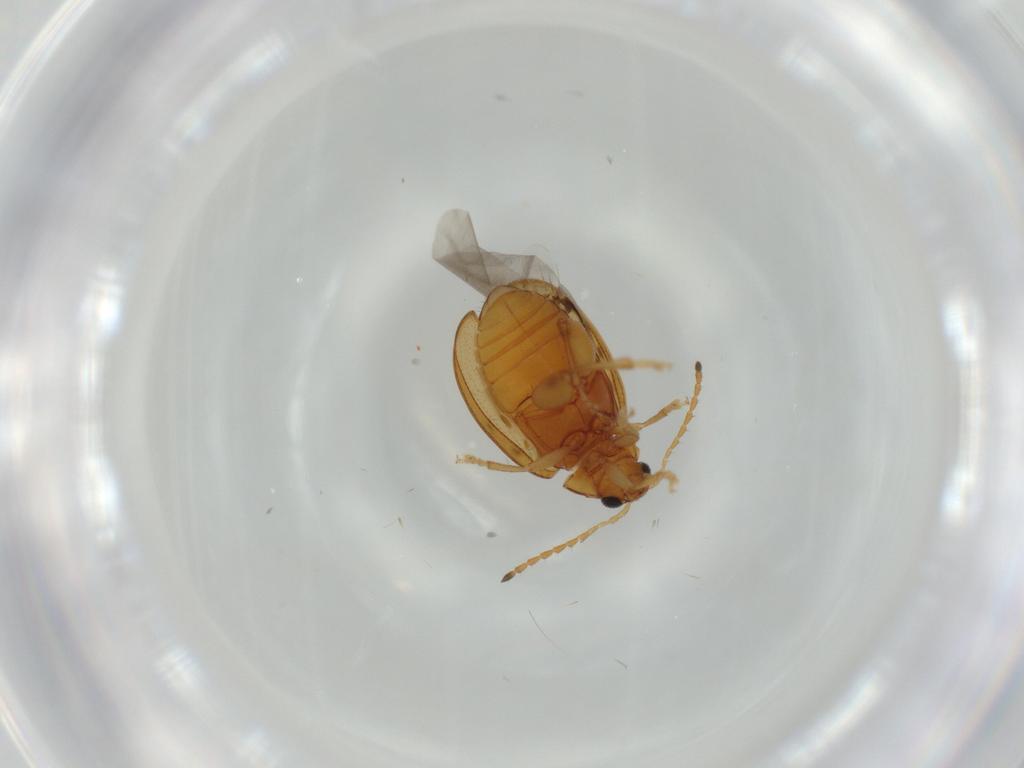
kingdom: Animalia
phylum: Arthropoda
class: Insecta
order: Coleoptera
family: Chrysomelidae
